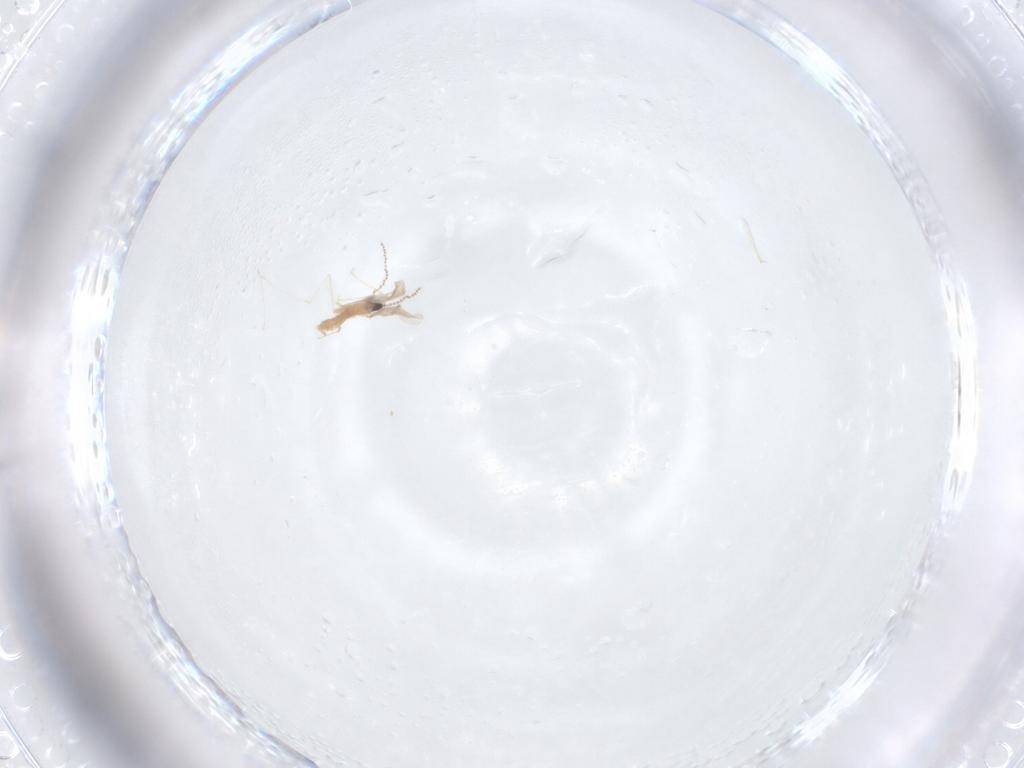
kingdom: Animalia
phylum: Arthropoda
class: Insecta
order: Diptera
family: Cecidomyiidae
